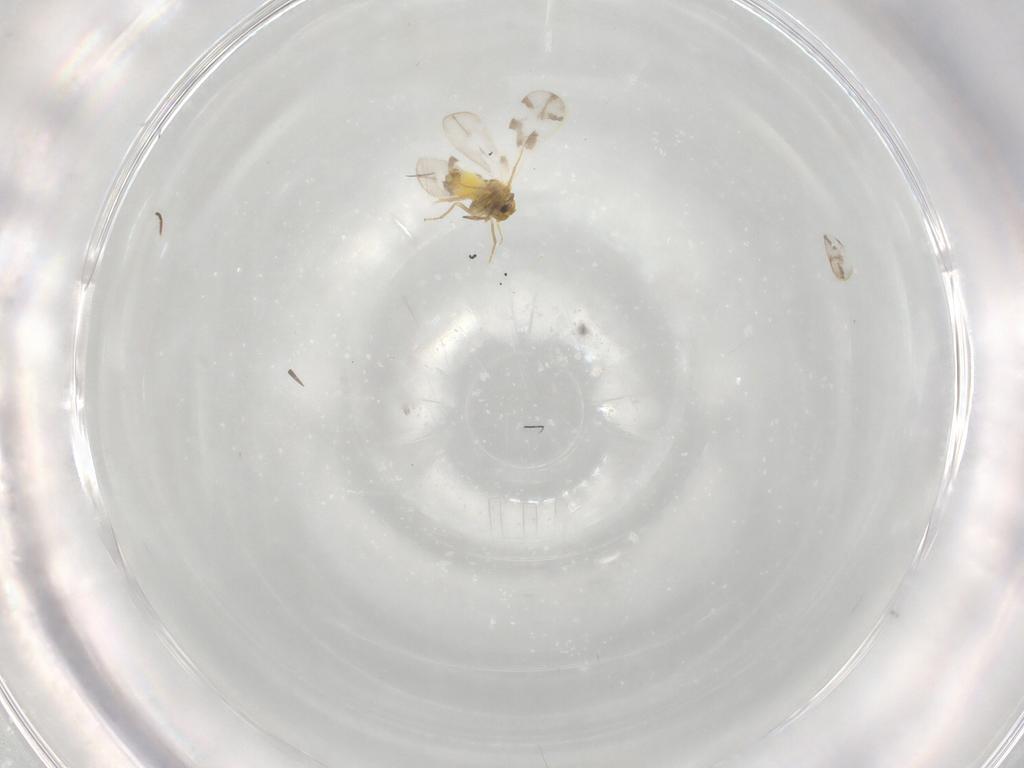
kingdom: Animalia
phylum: Arthropoda
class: Insecta
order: Hemiptera
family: Aleyrodidae
